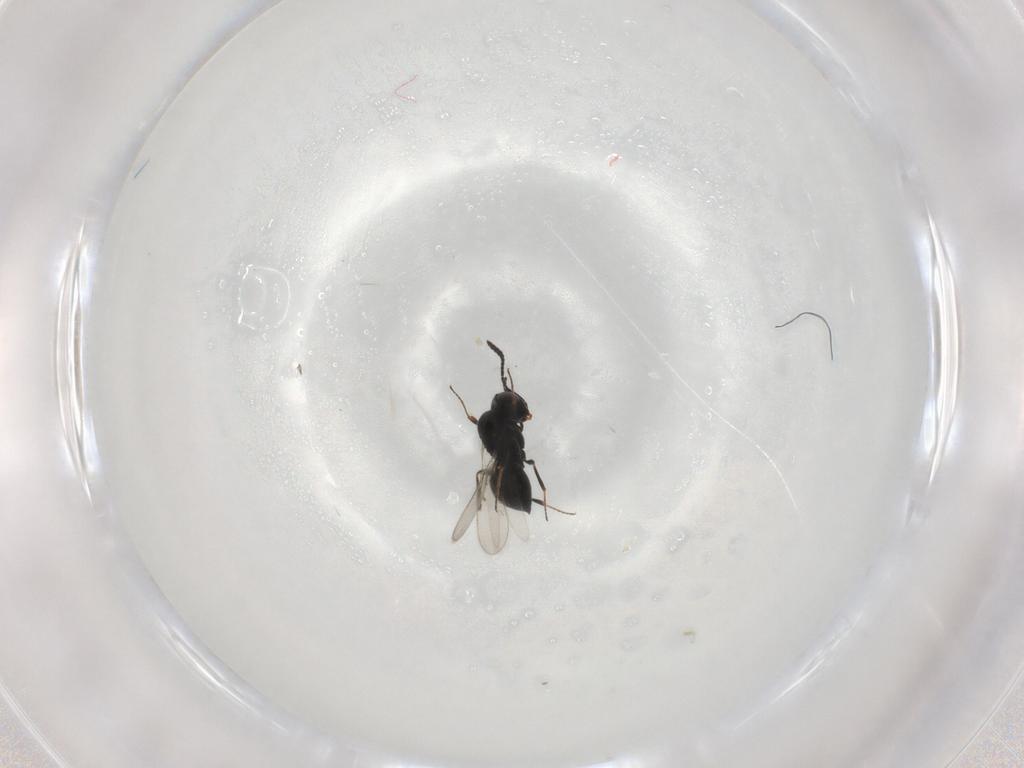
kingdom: Animalia
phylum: Arthropoda
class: Insecta
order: Hymenoptera
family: Scelionidae
